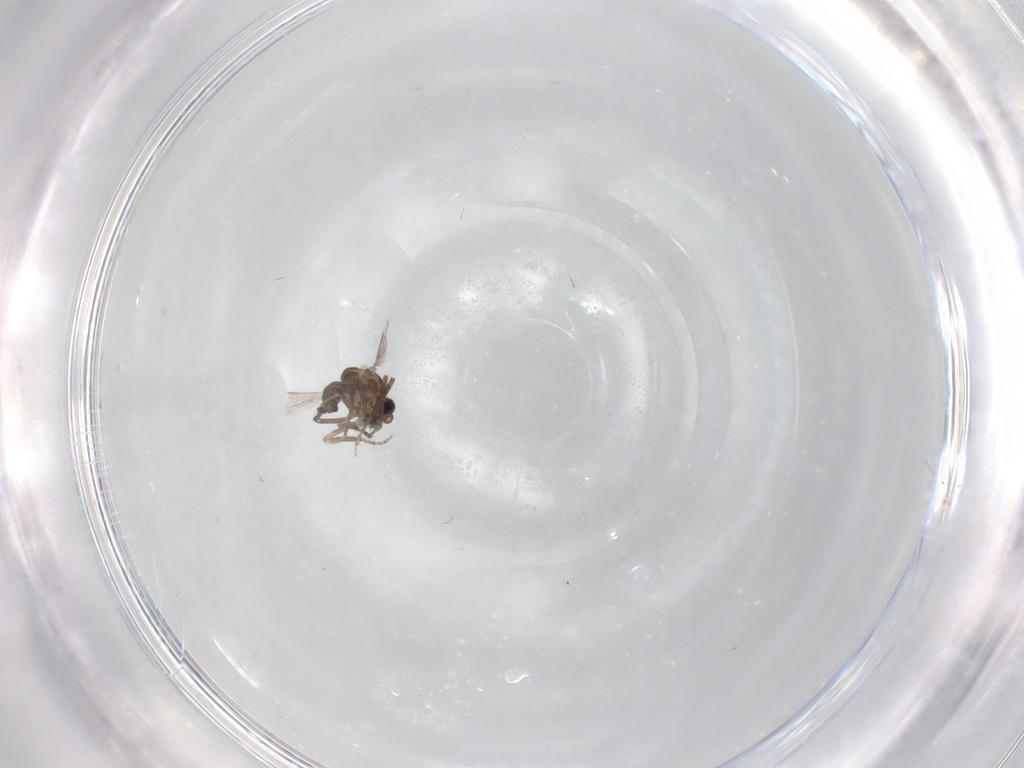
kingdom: Animalia
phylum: Arthropoda
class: Insecta
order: Diptera
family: Ceratopogonidae
